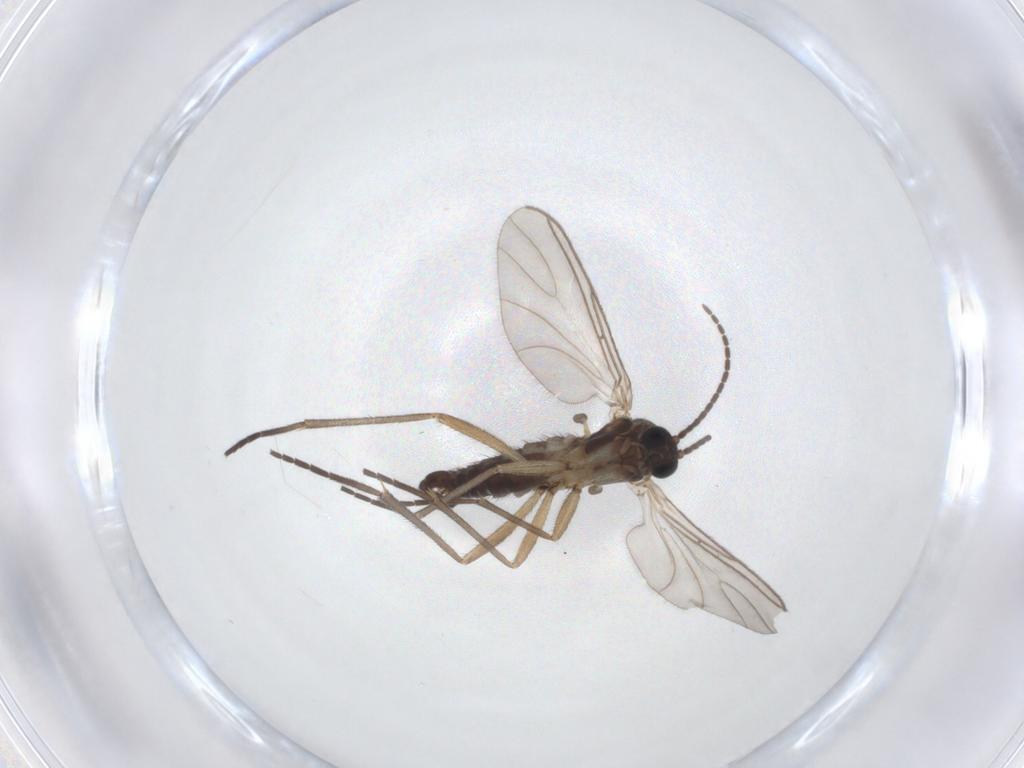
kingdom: Animalia
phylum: Arthropoda
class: Insecta
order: Diptera
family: Sciaridae
